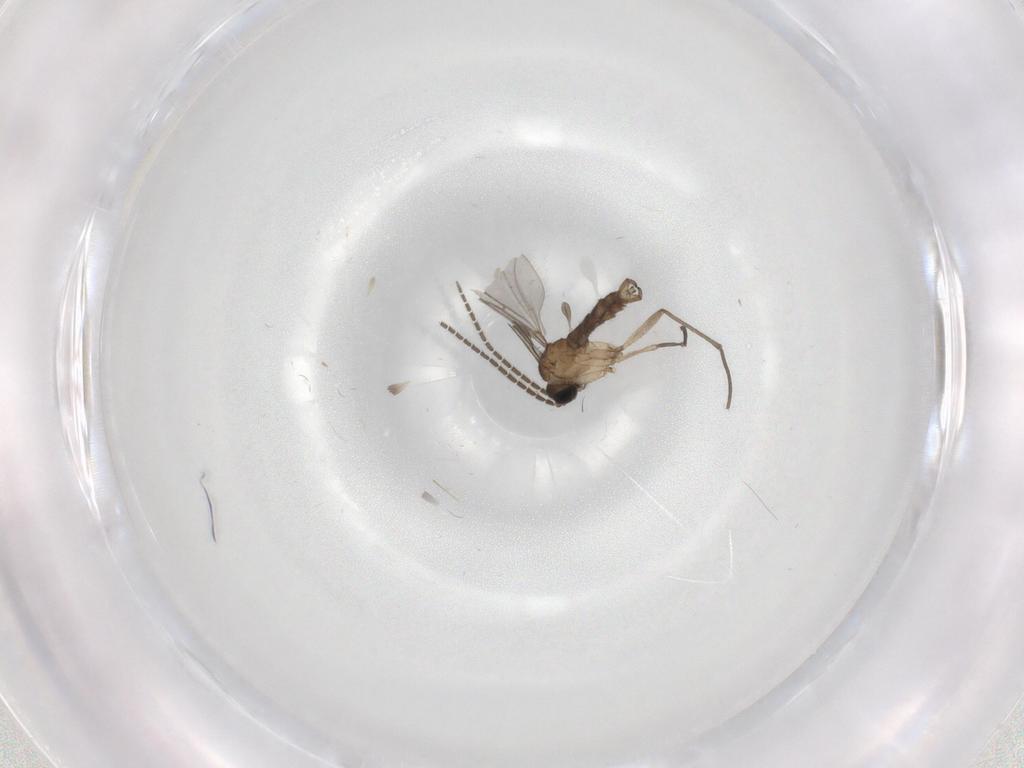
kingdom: Animalia
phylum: Arthropoda
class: Insecta
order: Diptera
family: Sciaridae
